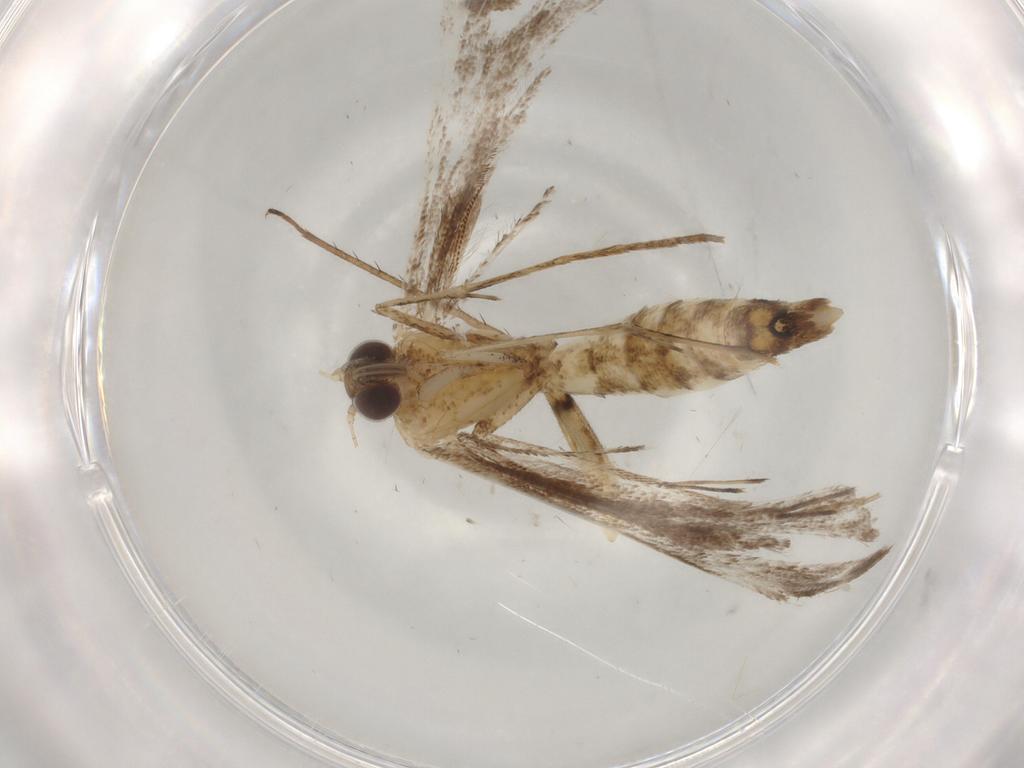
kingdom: Animalia
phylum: Arthropoda
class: Insecta
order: Lepidoptera
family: Pterophoridae
